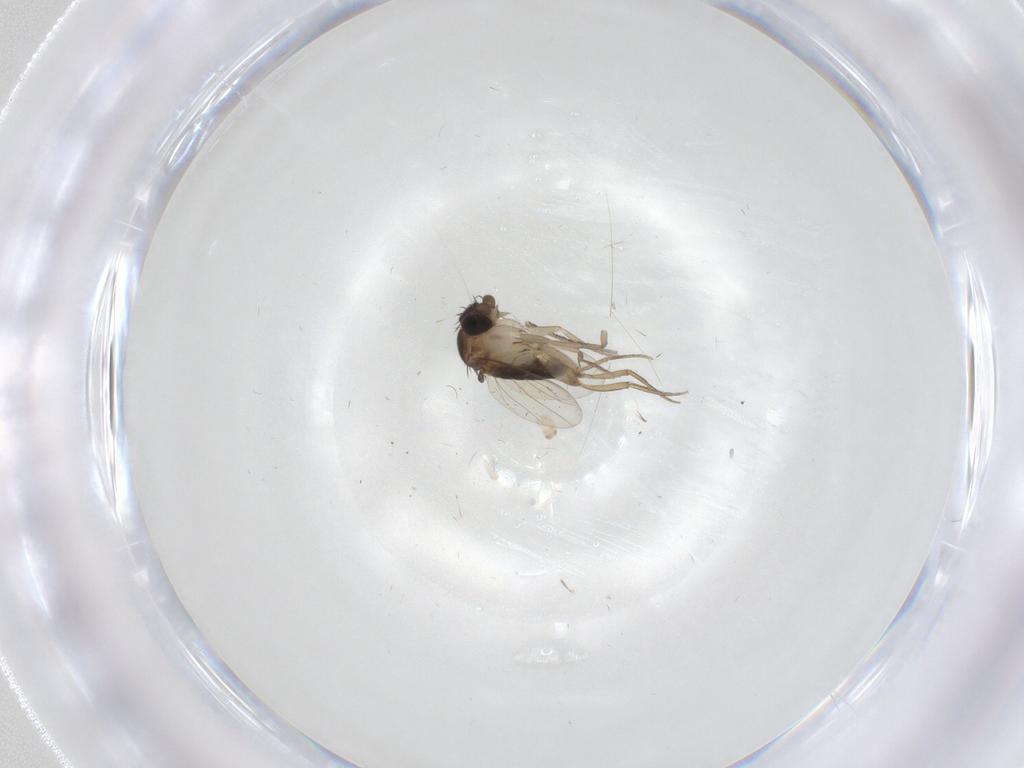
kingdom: Animalia
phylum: Arthropoda
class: Insecta
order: Diptera
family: Phoridae
